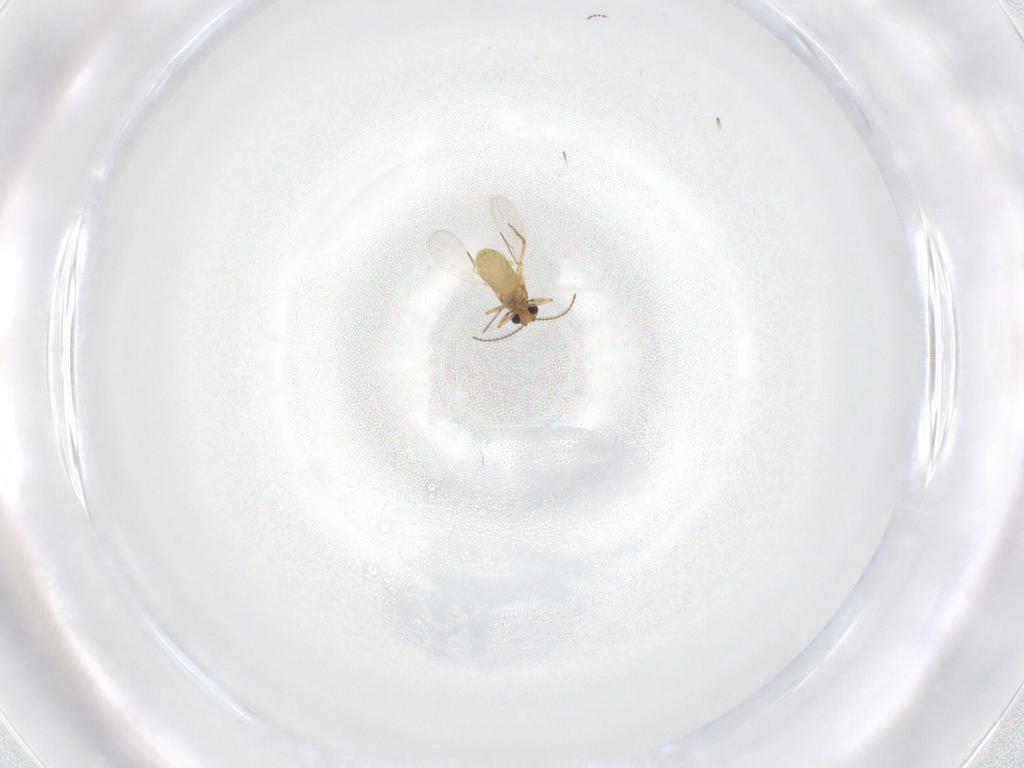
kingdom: Animalia
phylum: Arthropoda
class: Insecta
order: Diptera
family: Ceratopogonidae
